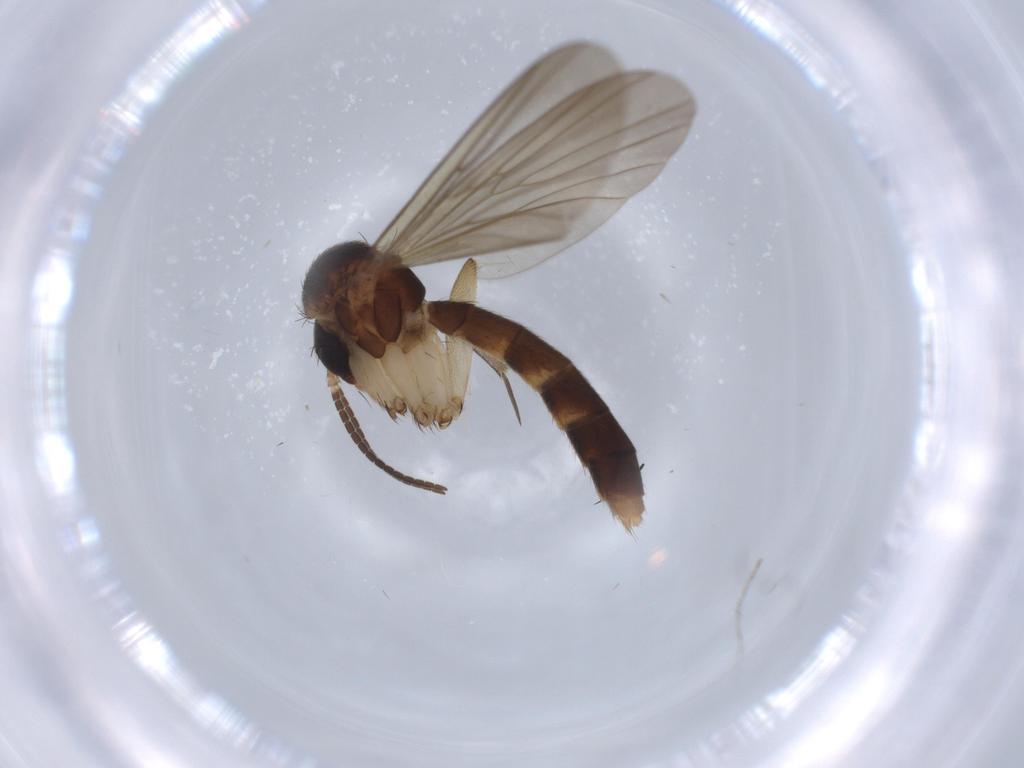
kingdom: Animalia
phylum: Arthropoda
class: Insecta
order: Diptera
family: Mycetophilidae
